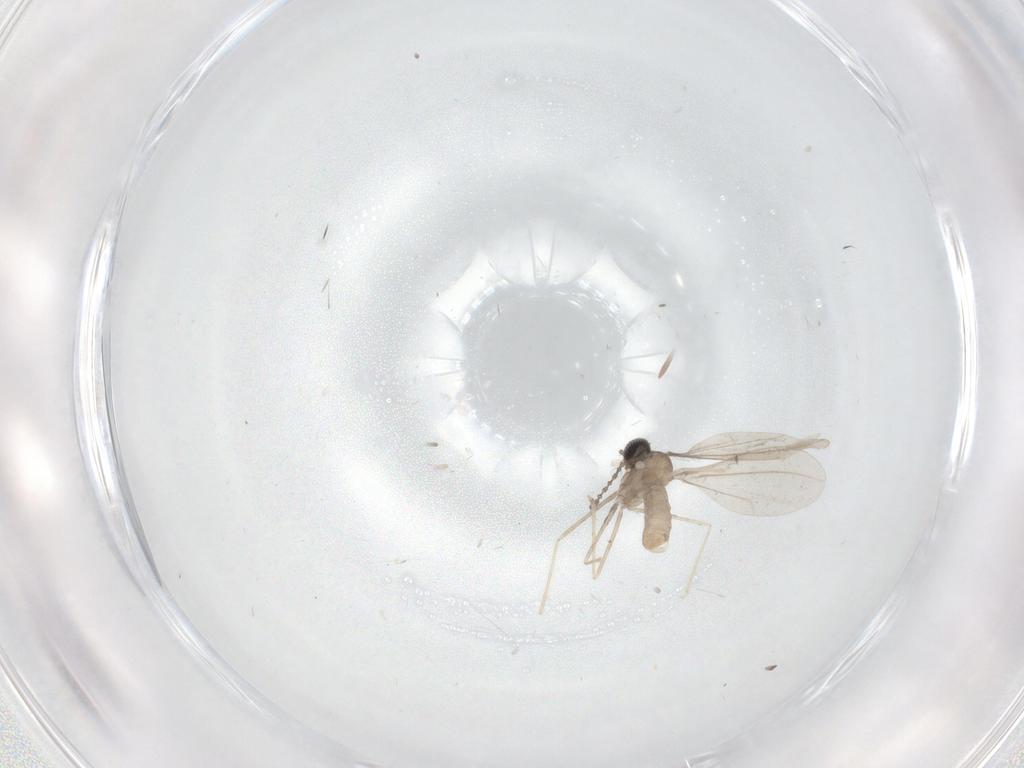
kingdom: Animalia
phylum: Arthropoda
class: Insecta
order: Diptera
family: Cecidomyiidae
